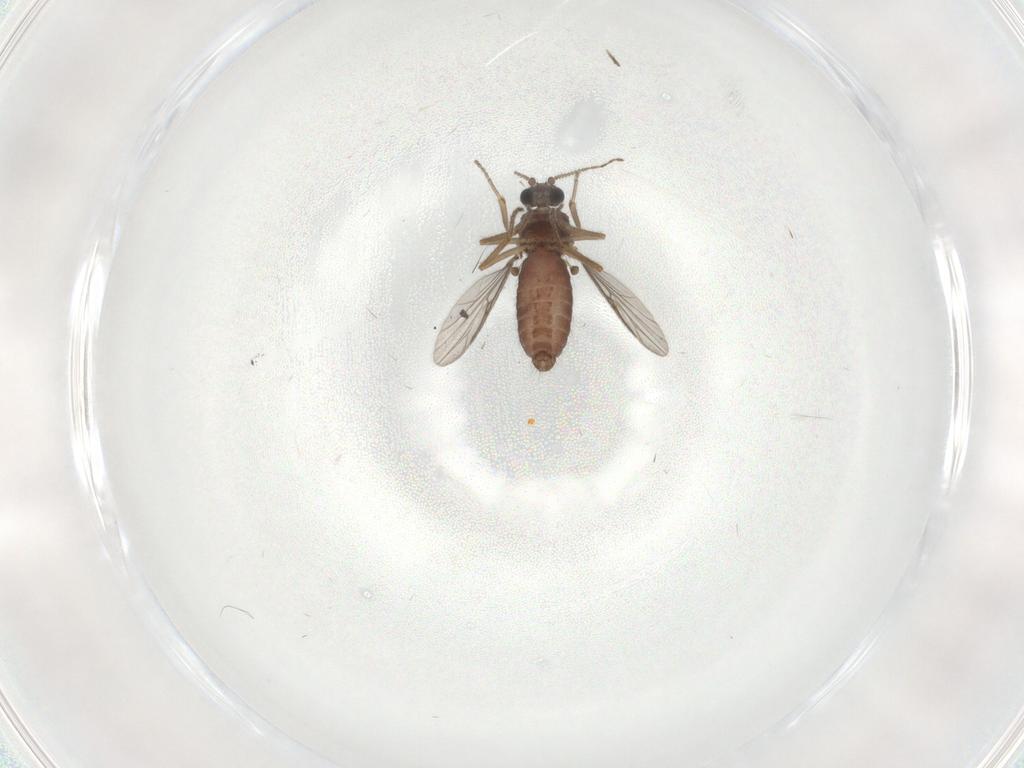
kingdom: Animalia
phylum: Arthropoda
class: Insecta
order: Diptera
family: Ceratopogonidae
